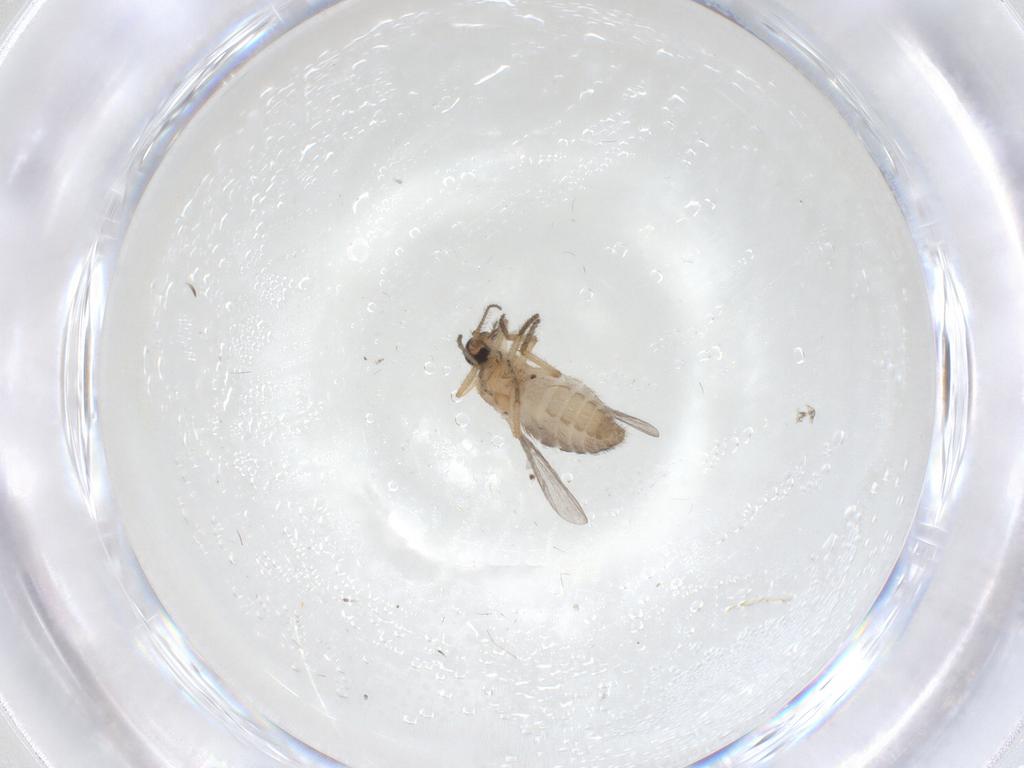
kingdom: Animalia
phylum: Arthropoda
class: Insecta
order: Diptera
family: Ceratopogonidae
